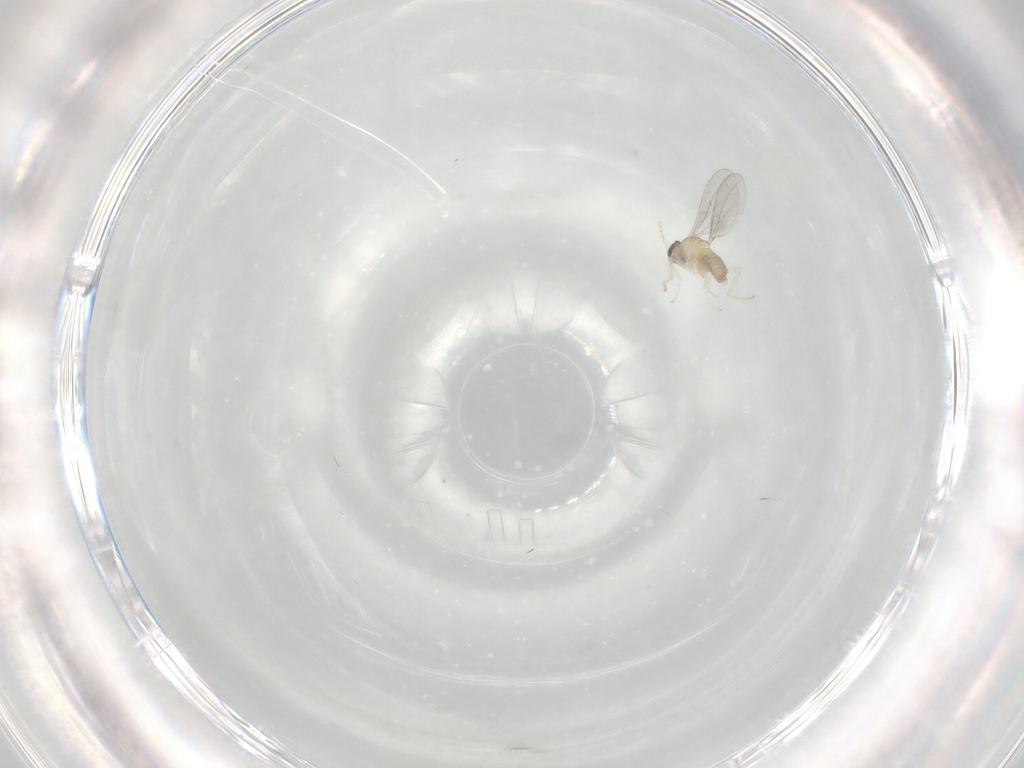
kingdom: Animalia
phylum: Arthropoda
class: Insecta
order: Diptera
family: Cecidomyiidae
